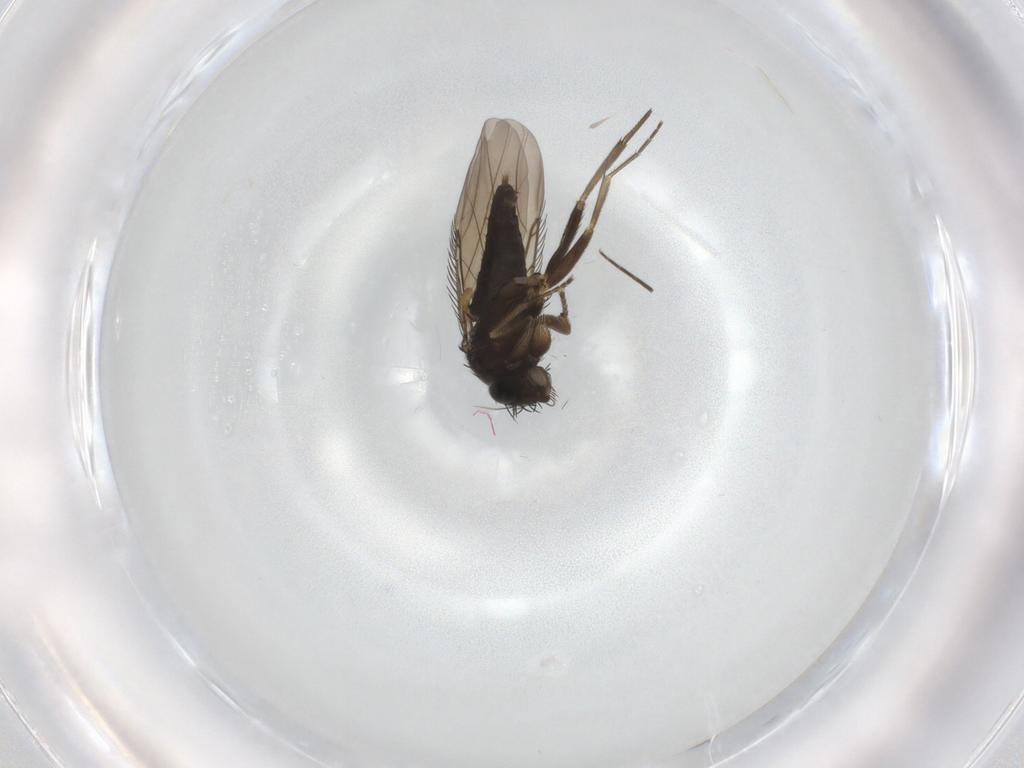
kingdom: Animalia
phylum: Arthropoda
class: Insecta
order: Diptera
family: Phoridae
